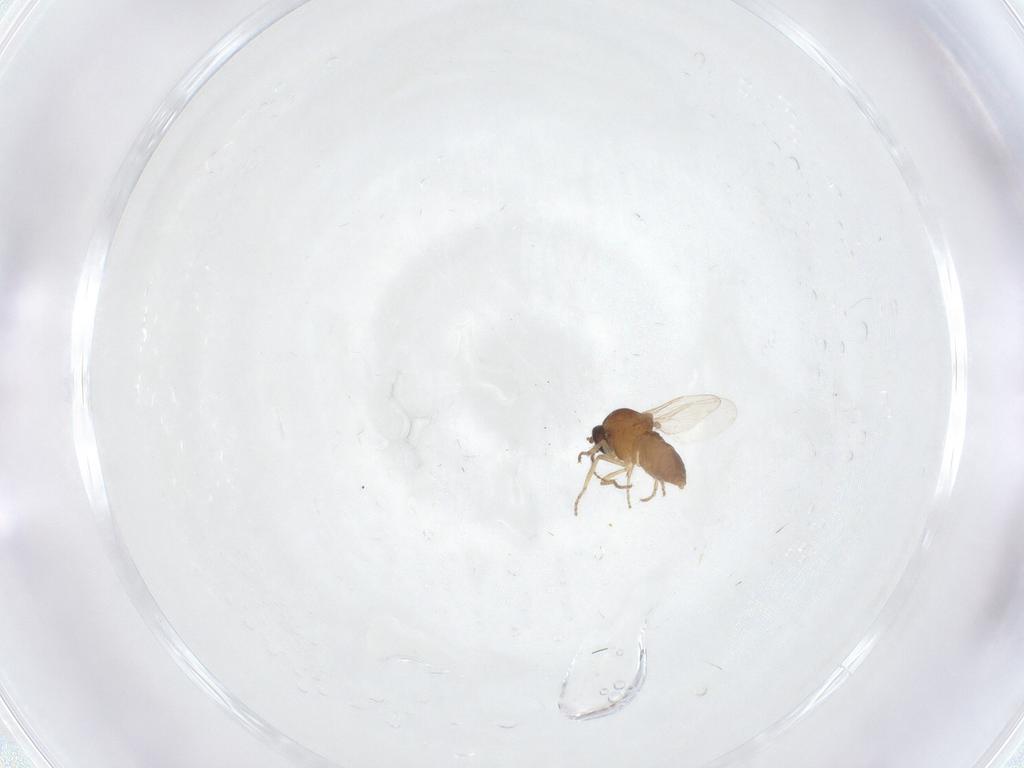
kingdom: Animalia
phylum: Arthropoda
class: Insecta
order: Diptera
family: Ceratopogonidae
